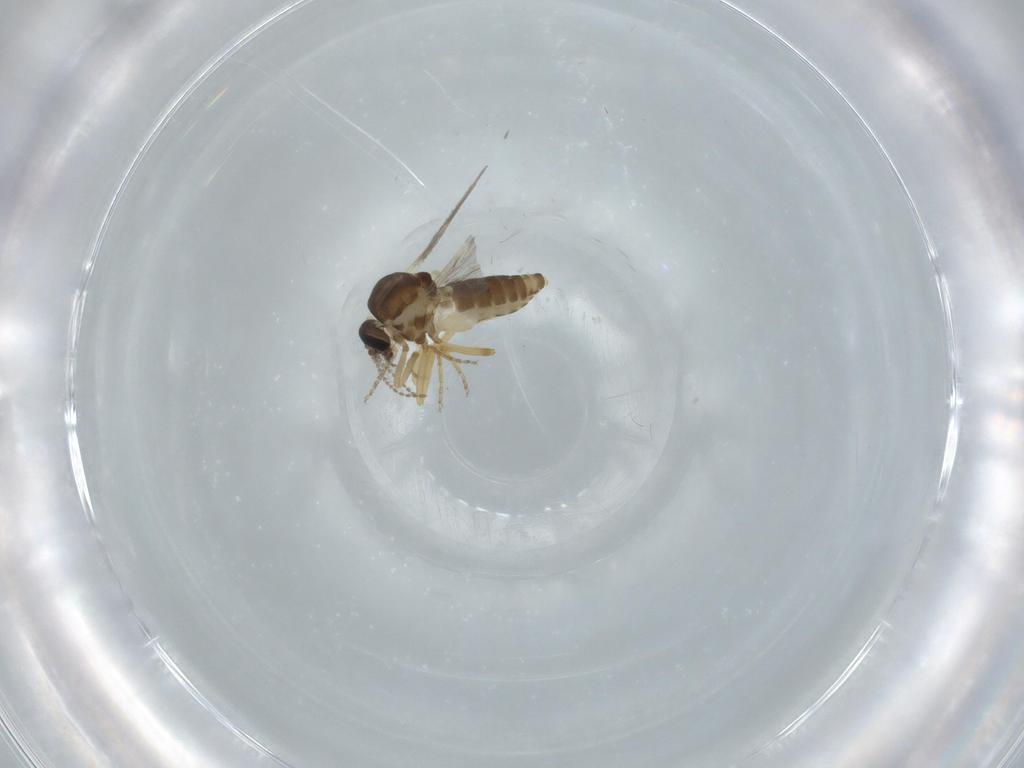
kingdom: Animalia
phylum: Arthropoda
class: Insecta
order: Diptera
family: Ceratopogonidae
